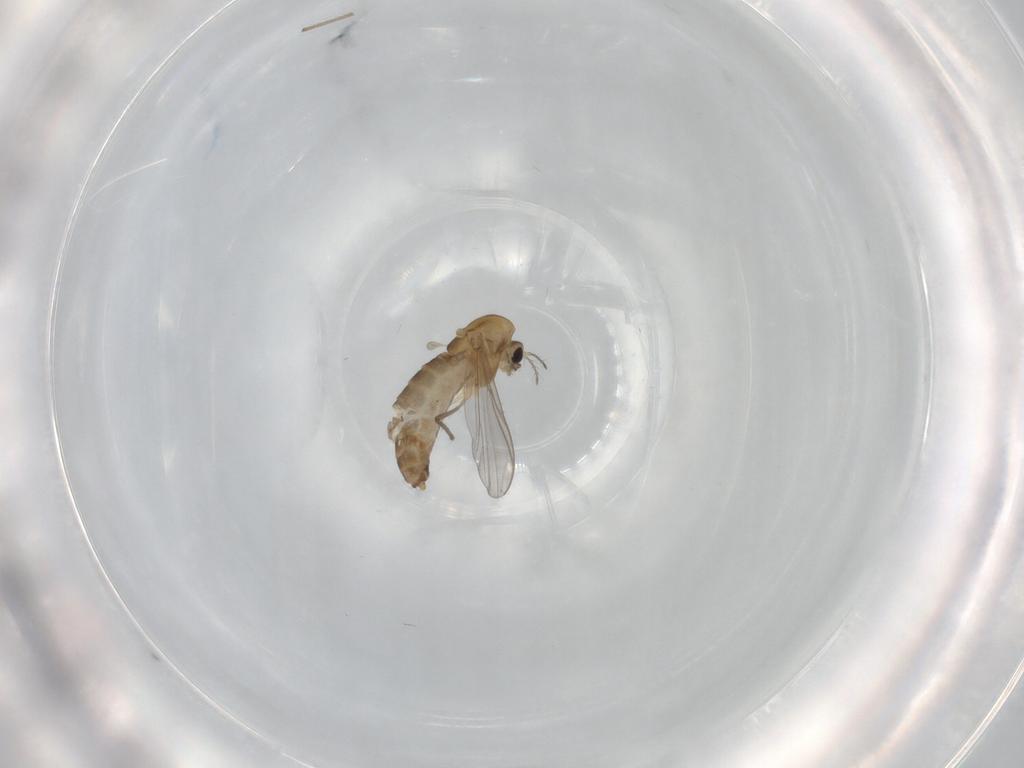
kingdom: Animalia
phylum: Arthropoda
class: Insecta
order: Diptera
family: Chironomidae
